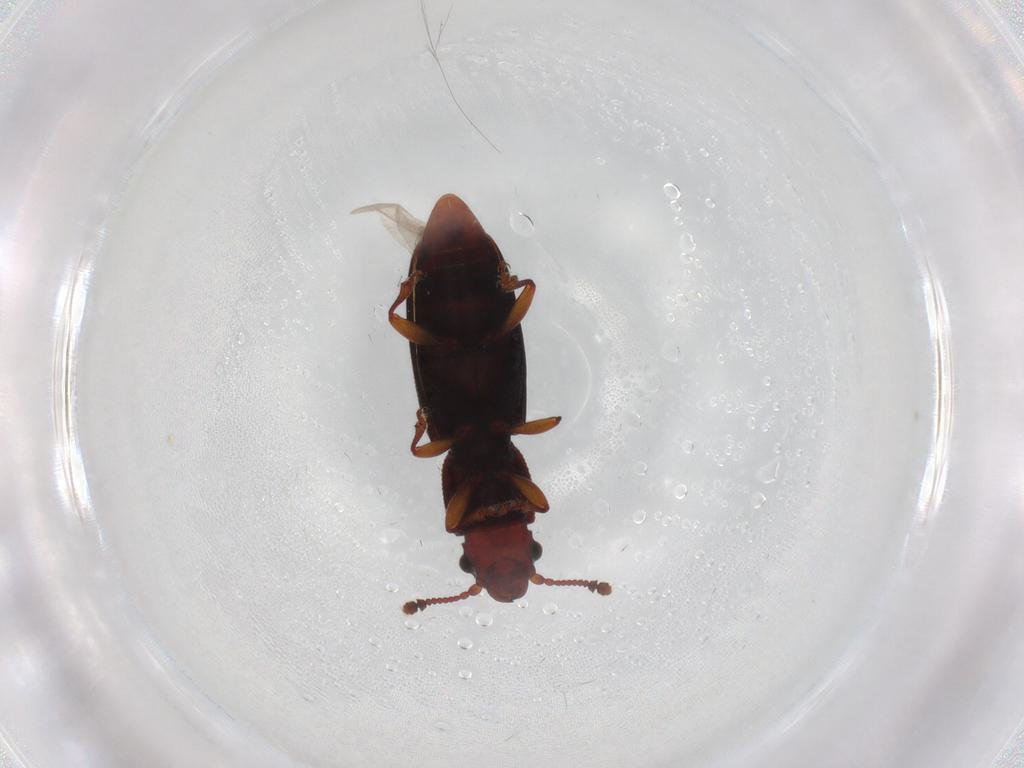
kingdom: Animalia
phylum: Arthropoda
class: Insecta
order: Coleoptera
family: Monotomidae
